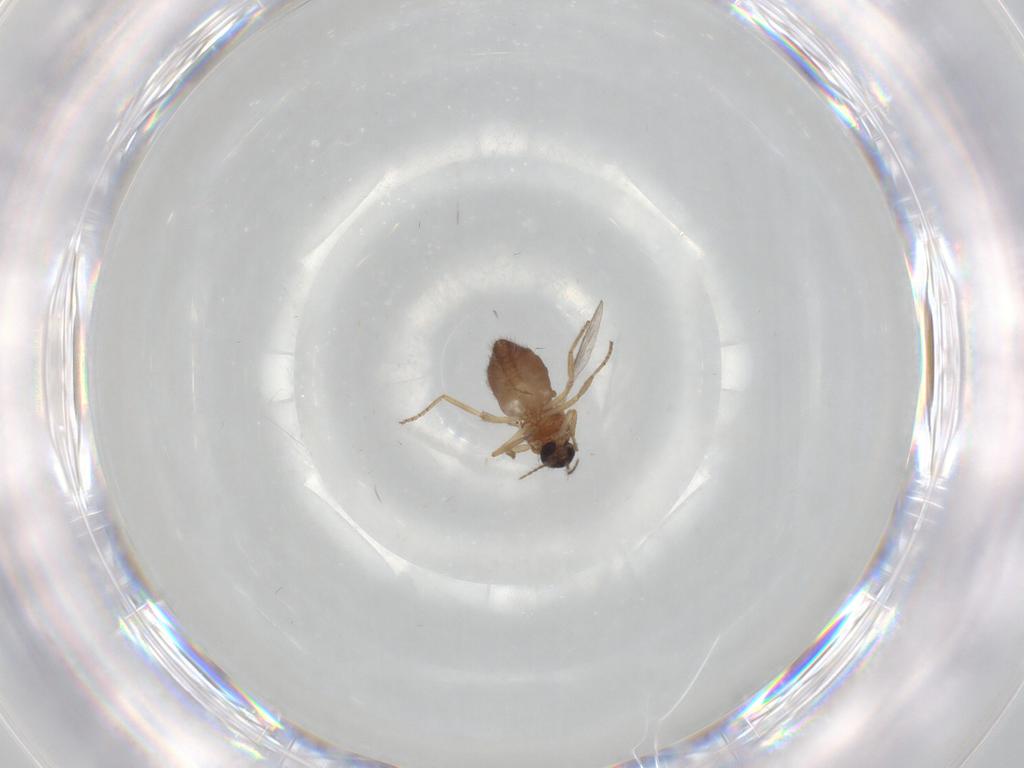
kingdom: Animalia
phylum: Arthropoda
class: Insecta
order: Diptera
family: Ceratopogonidae
